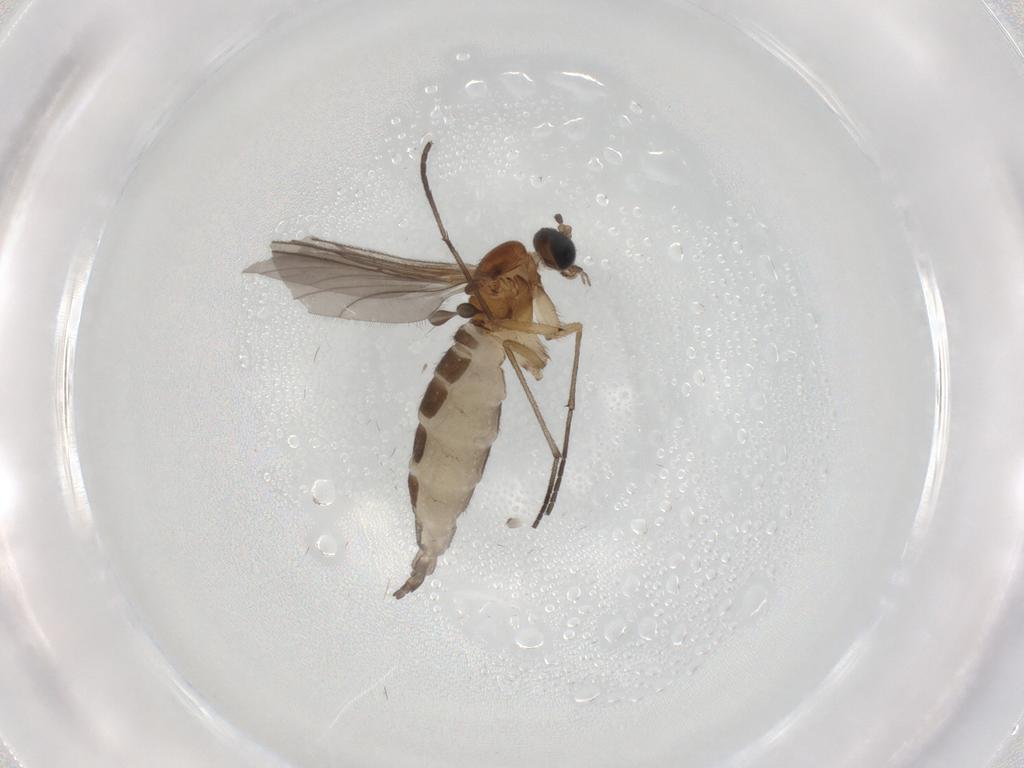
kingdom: Animalia
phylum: Arthropoda
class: Insecta
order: Diptera
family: Sciaridae
